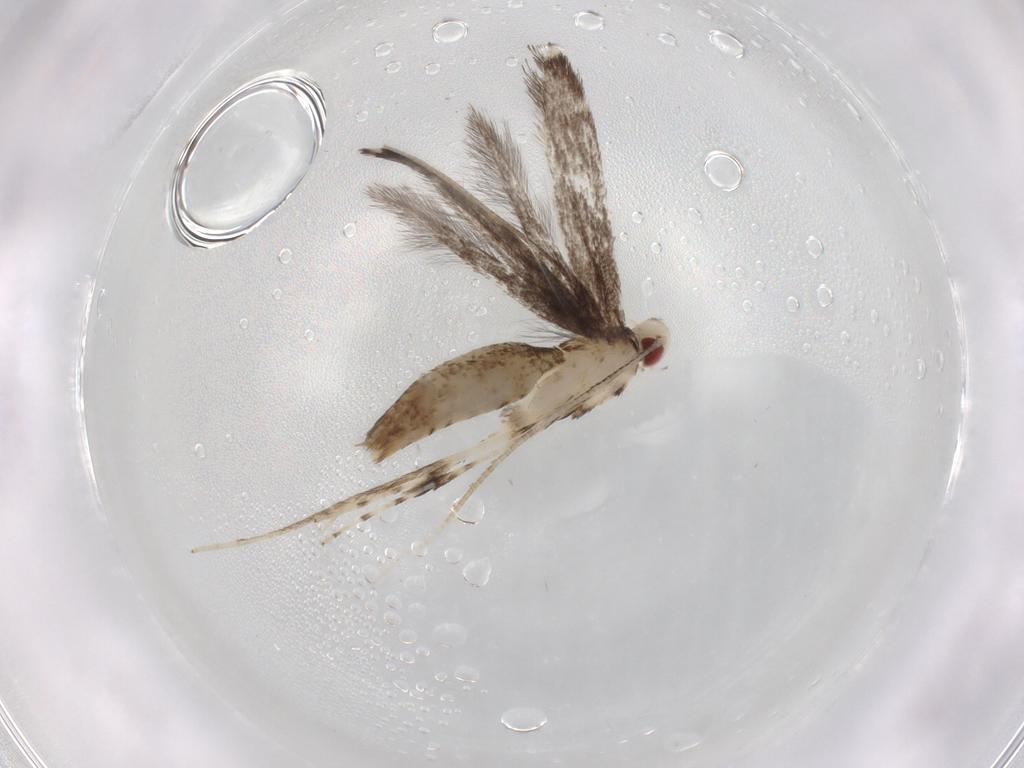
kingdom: Animalia
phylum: Arthropoda
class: Insecta
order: Lepidoptera
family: Gracillariidae
